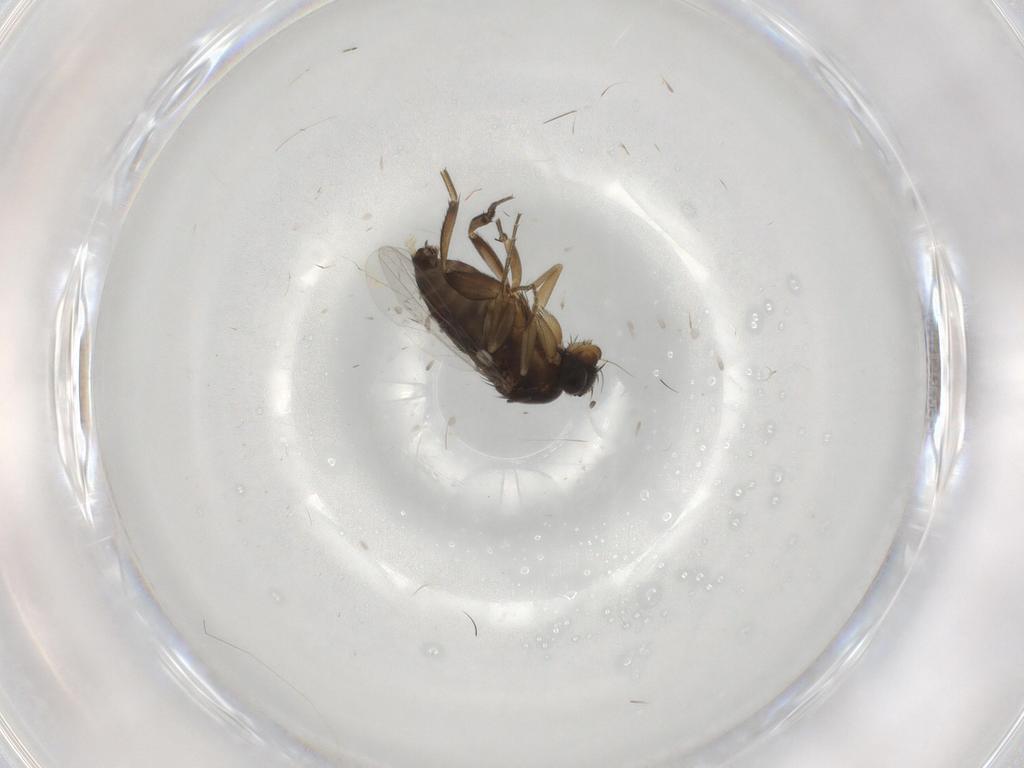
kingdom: Animalia
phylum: Arthropoda
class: Insecta
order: Diptera
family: Phoridae
